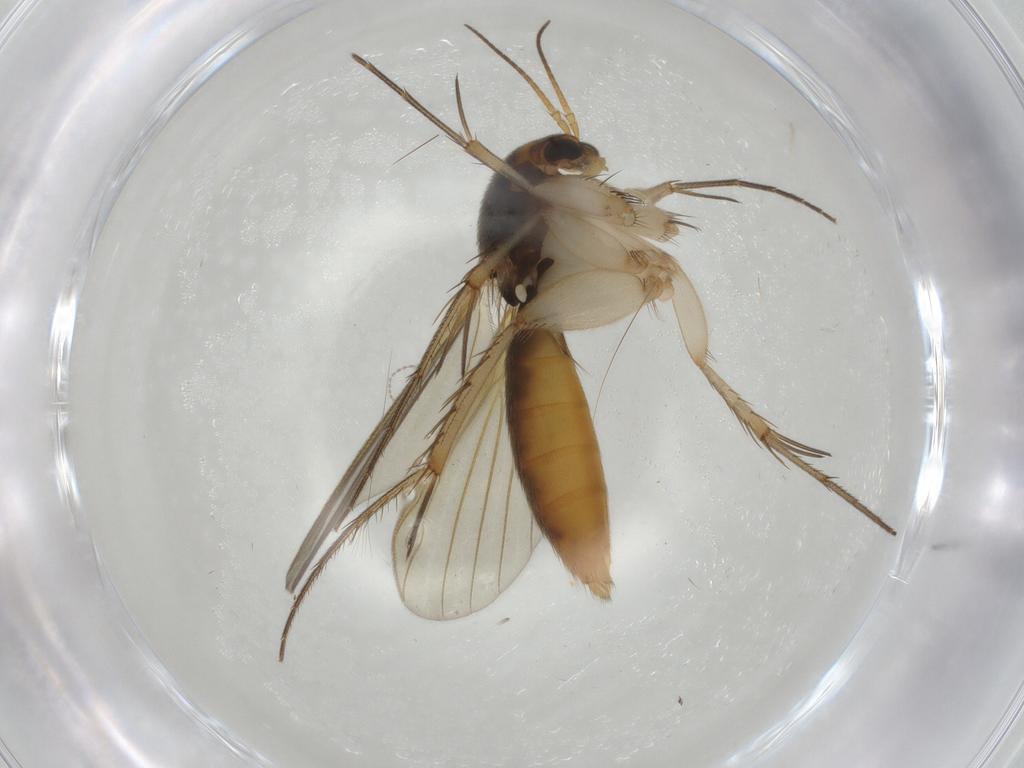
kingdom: Animalia
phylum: Arthropoda
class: Insecta
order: Diptera
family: Mycetophilidae
